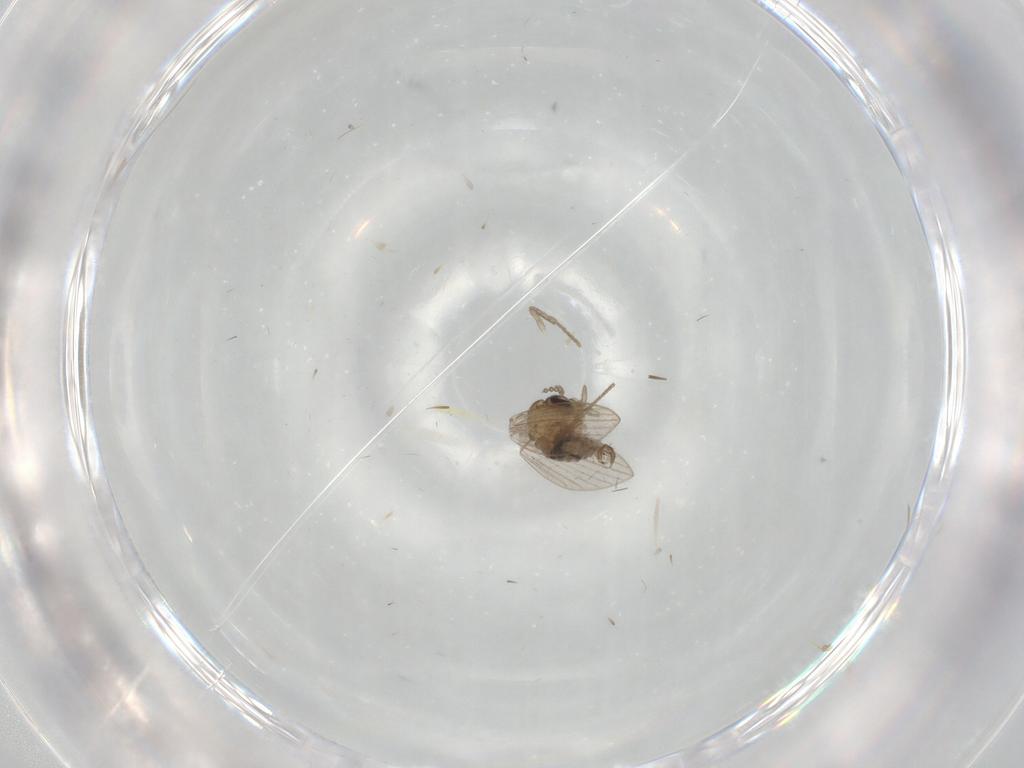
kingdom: Animalia
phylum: Arthropoda
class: Insecta
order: Diptera
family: Psychodidae
